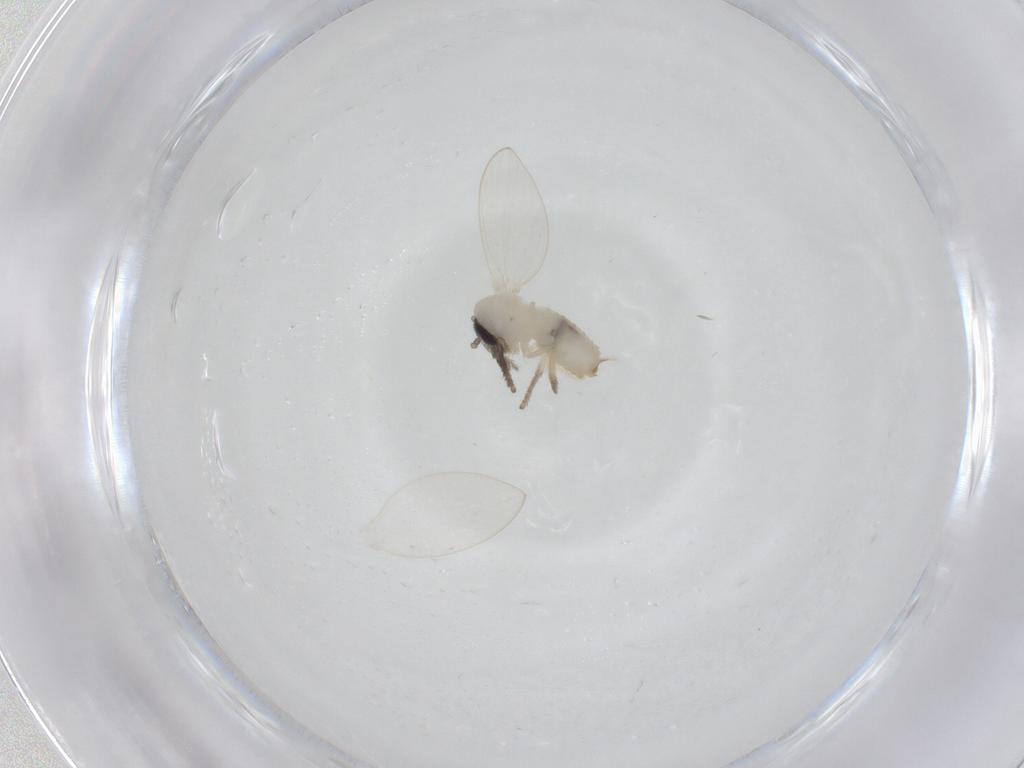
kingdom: Animalia
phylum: Arthropoda
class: Insecta
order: Diptera
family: Psychodidae
